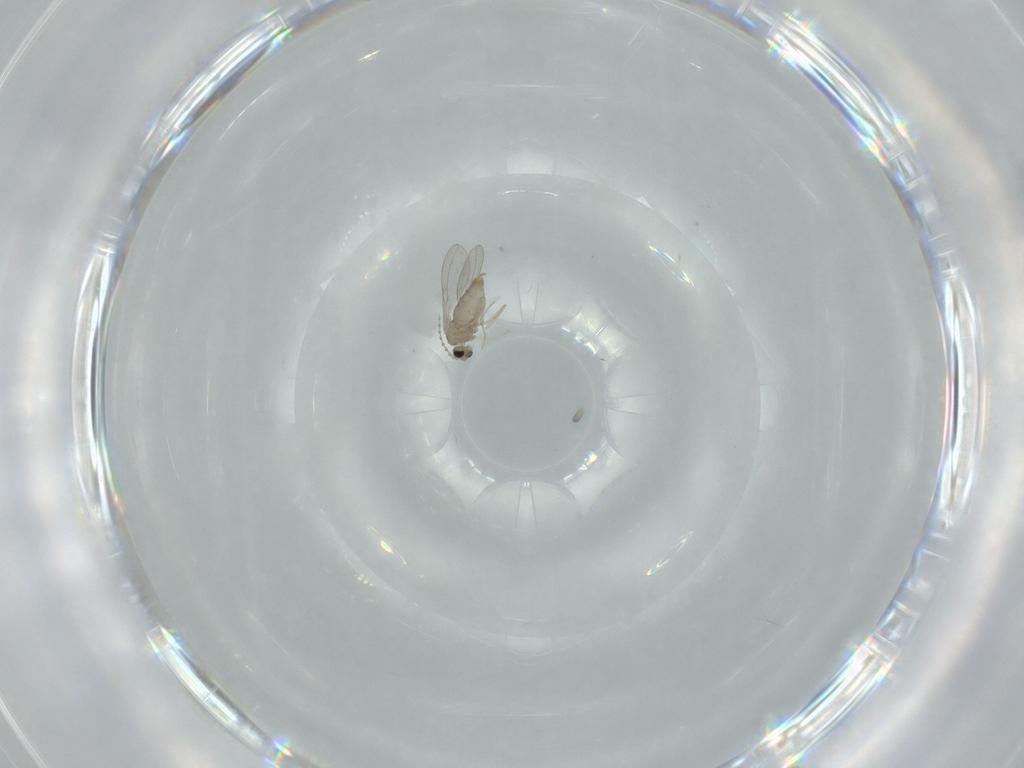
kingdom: Animalia
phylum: Arthropoda
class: Insecta
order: Diptera
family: Cecidomyiidae
